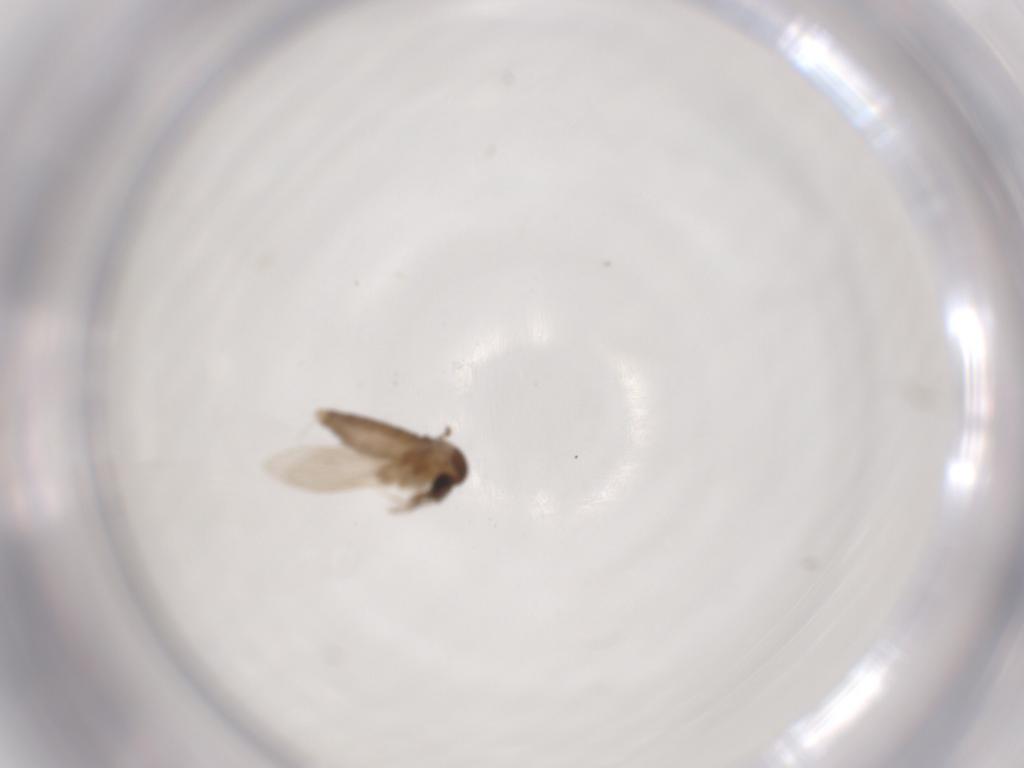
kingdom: Animalia
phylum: Arthropoda
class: Insecta
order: Diptera
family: Psychodidae
